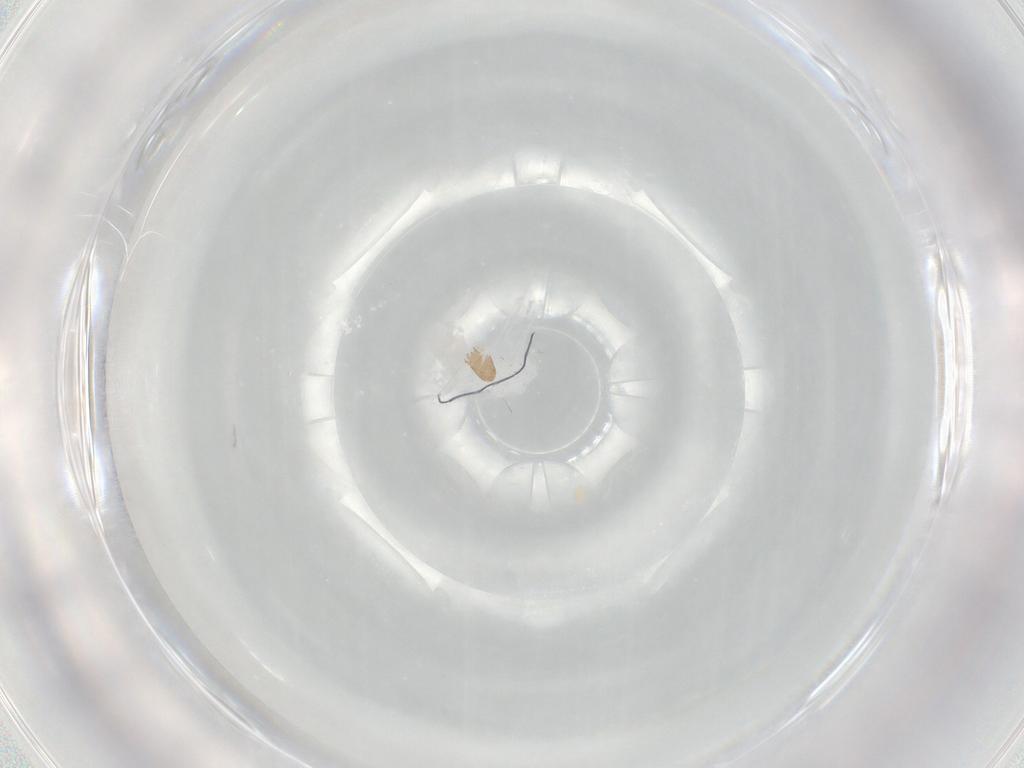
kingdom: Animalia
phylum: Arthropoda
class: Arachnida
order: Trombidiformes
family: Anystidae
